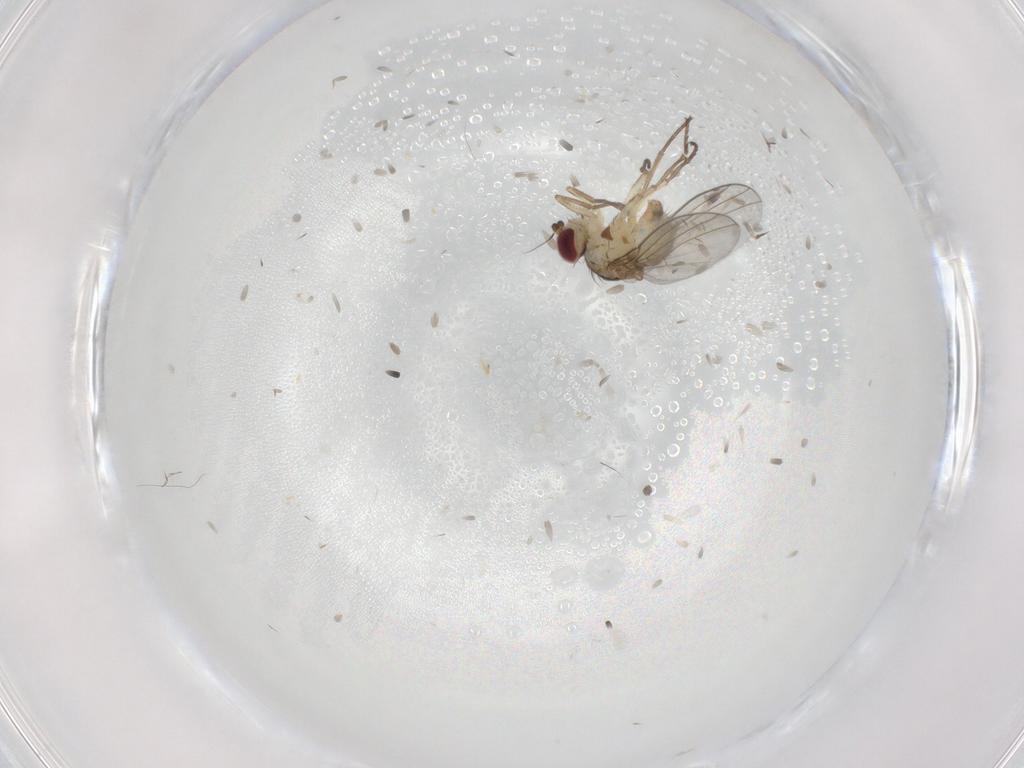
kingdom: Animalia
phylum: Arthropoda
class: Insecta
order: Diptera
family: Agromyzidae
